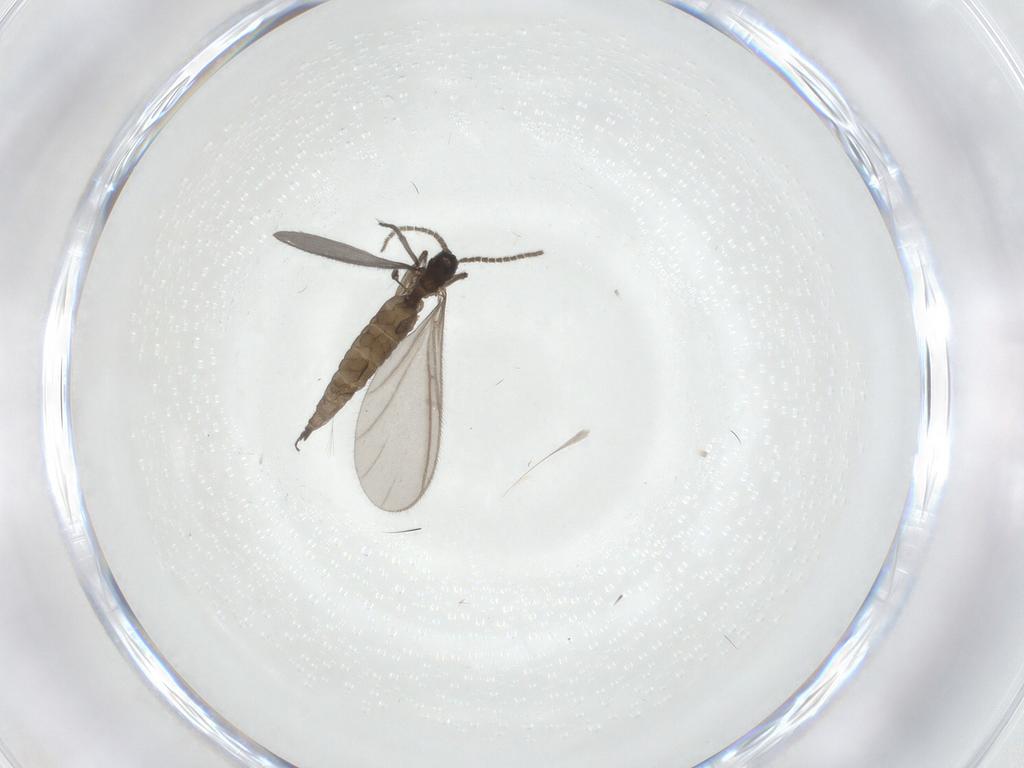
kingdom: Animalia
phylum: Arthropoda
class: Insecta
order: Diptera
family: Sciaridae
